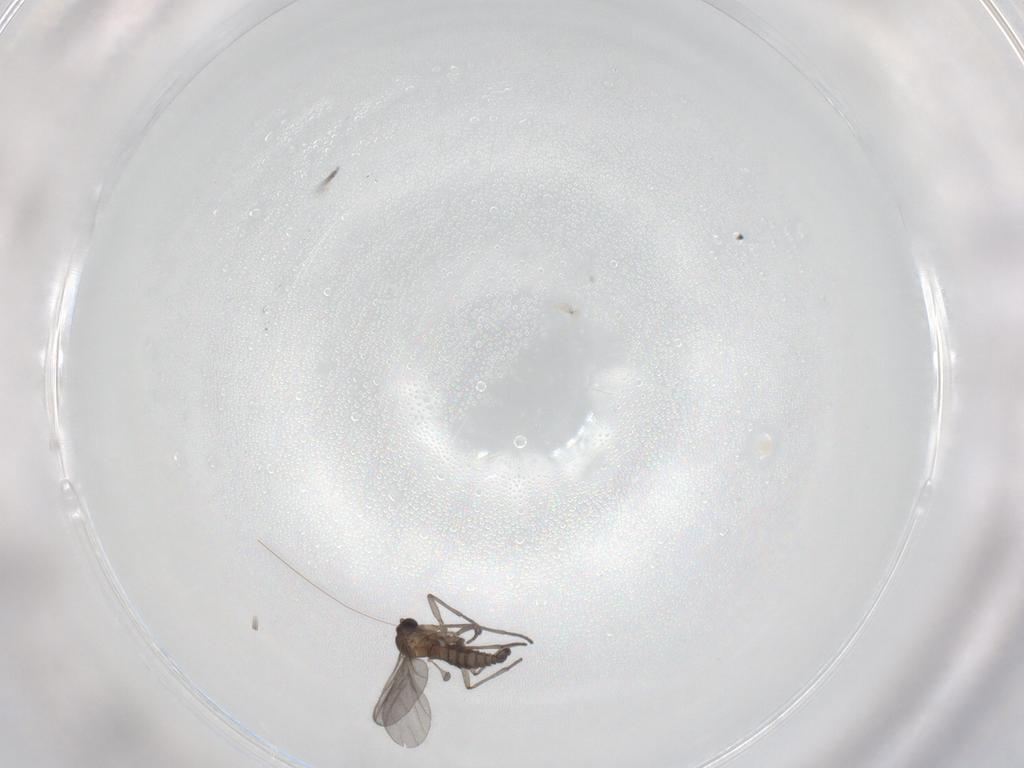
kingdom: Animalia
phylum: Arthropoda
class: Insecta
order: Diptera
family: Sciaridae
